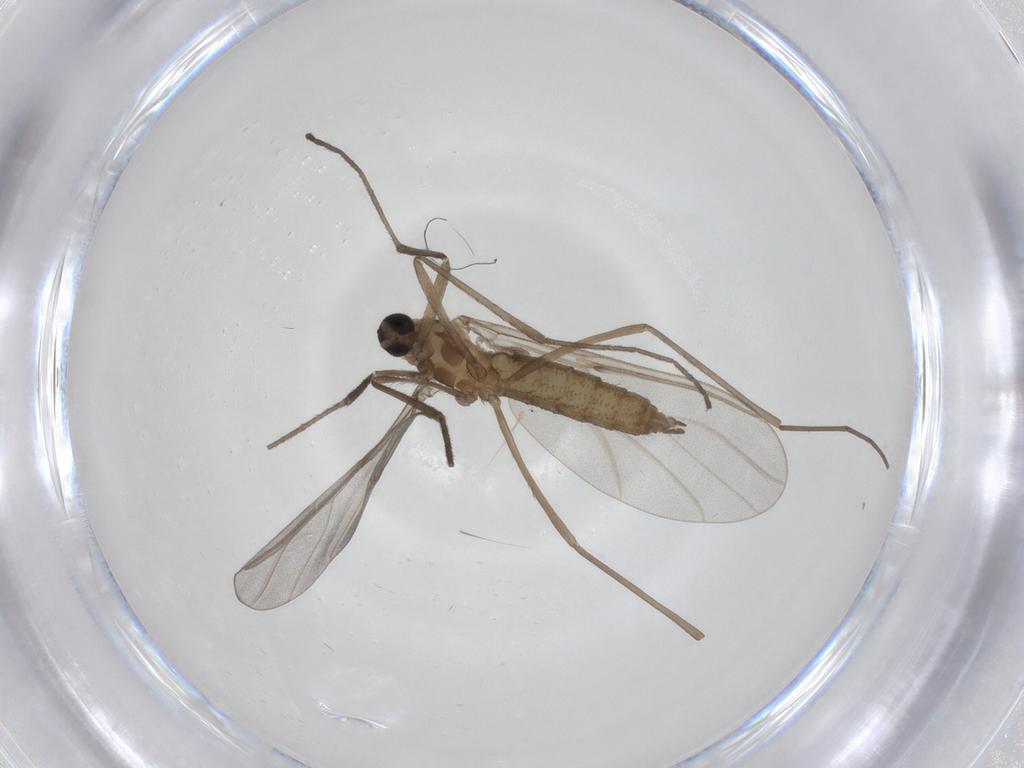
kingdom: Animalia
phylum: Arthropoda
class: Insecta
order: Diptera
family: Cecidomyiidae
